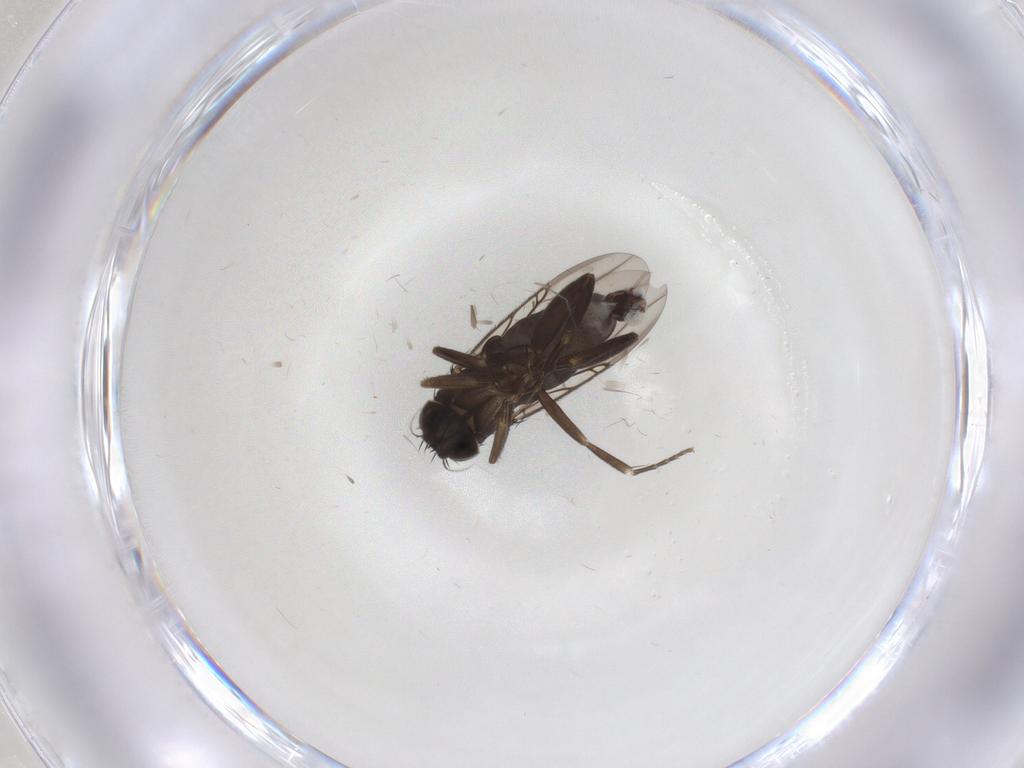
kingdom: Animalia
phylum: Arthropoda
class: Insecta
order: Diptera
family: Phoridae
